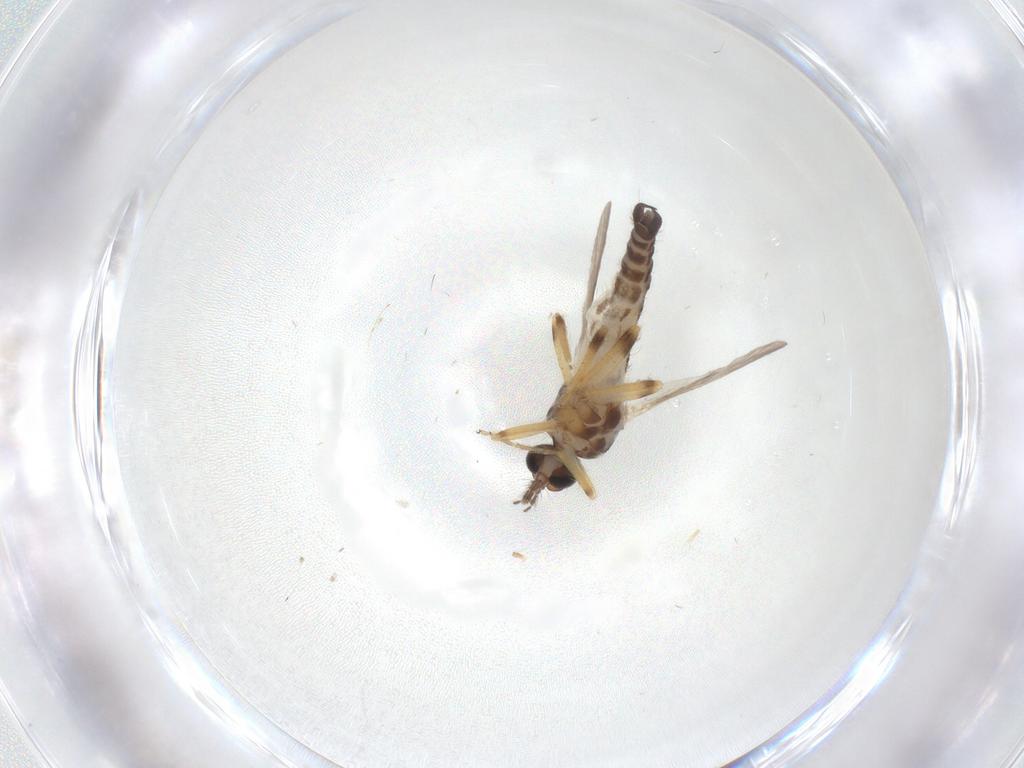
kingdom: Animalia
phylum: Arthropoda
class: Insecta
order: Diptera
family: Ceratopogonidae
